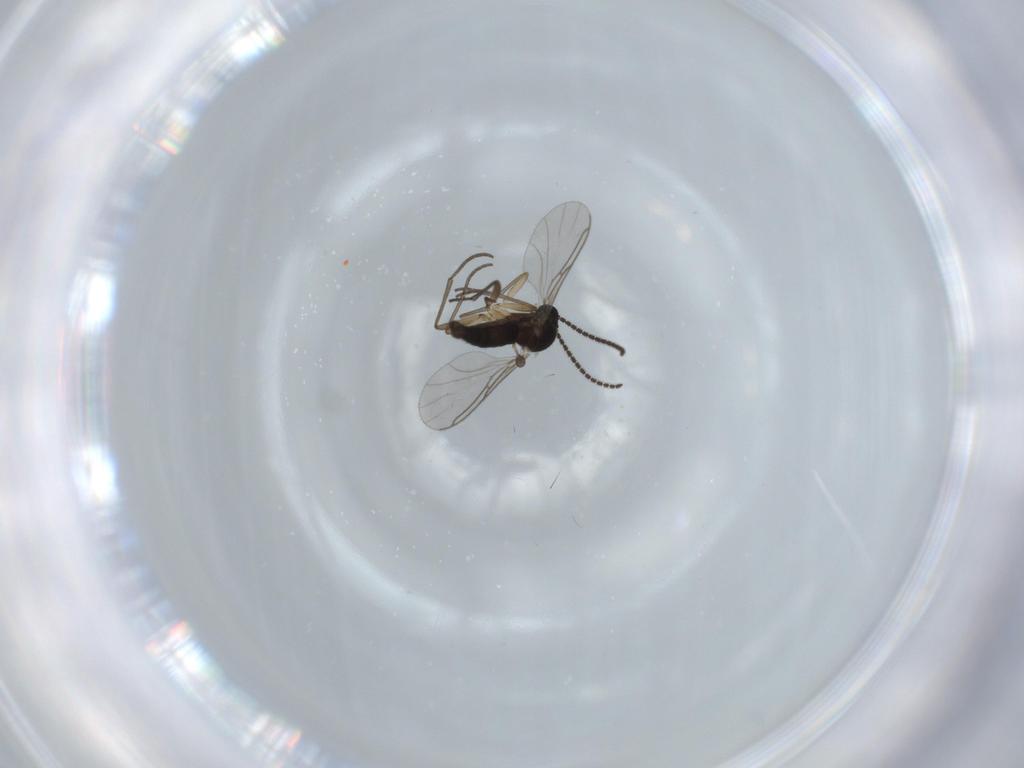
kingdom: Animalia
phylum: Arthropoda
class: Insecta
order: Diptera
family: Sciaridae
